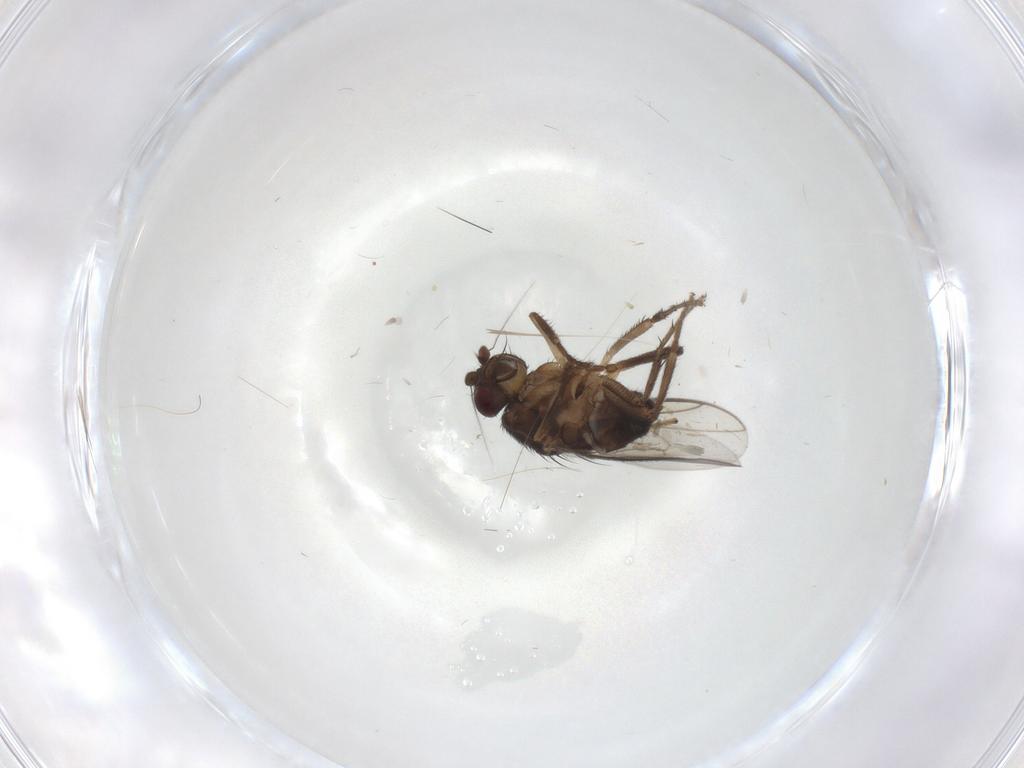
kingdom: Animalia
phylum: Arthropoda
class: Insecta
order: Diptera
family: Sphaeroceridae
